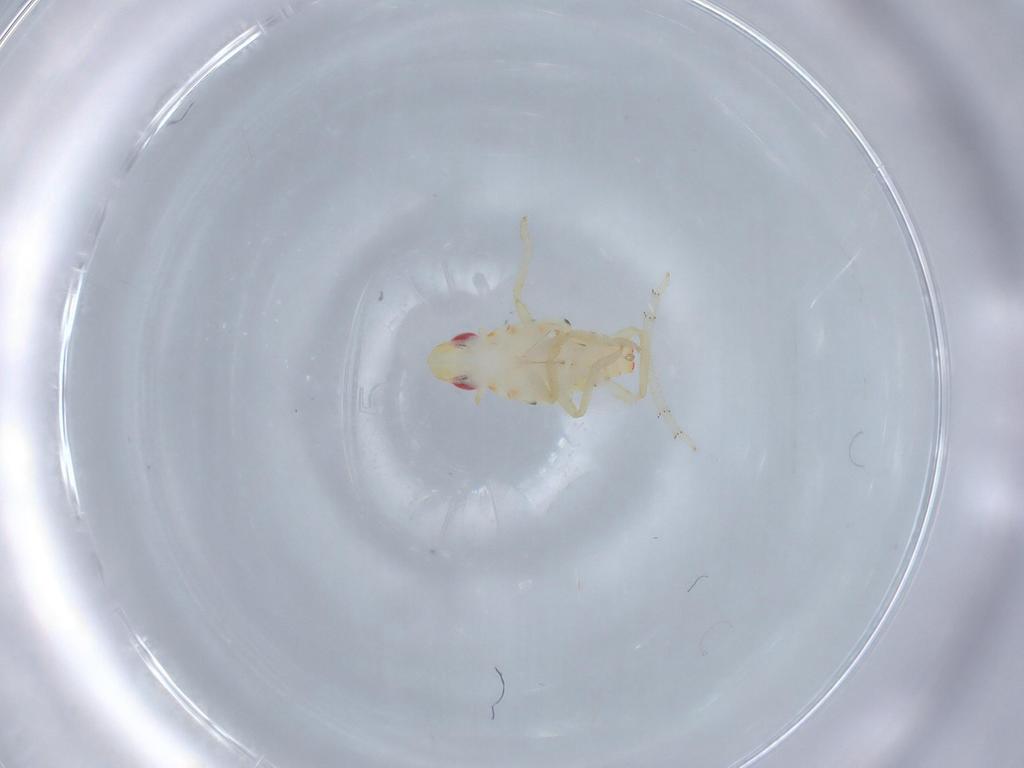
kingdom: Animalia
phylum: Arthropoda
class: Insecta
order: Hemiptera
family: Tropiduchidae
